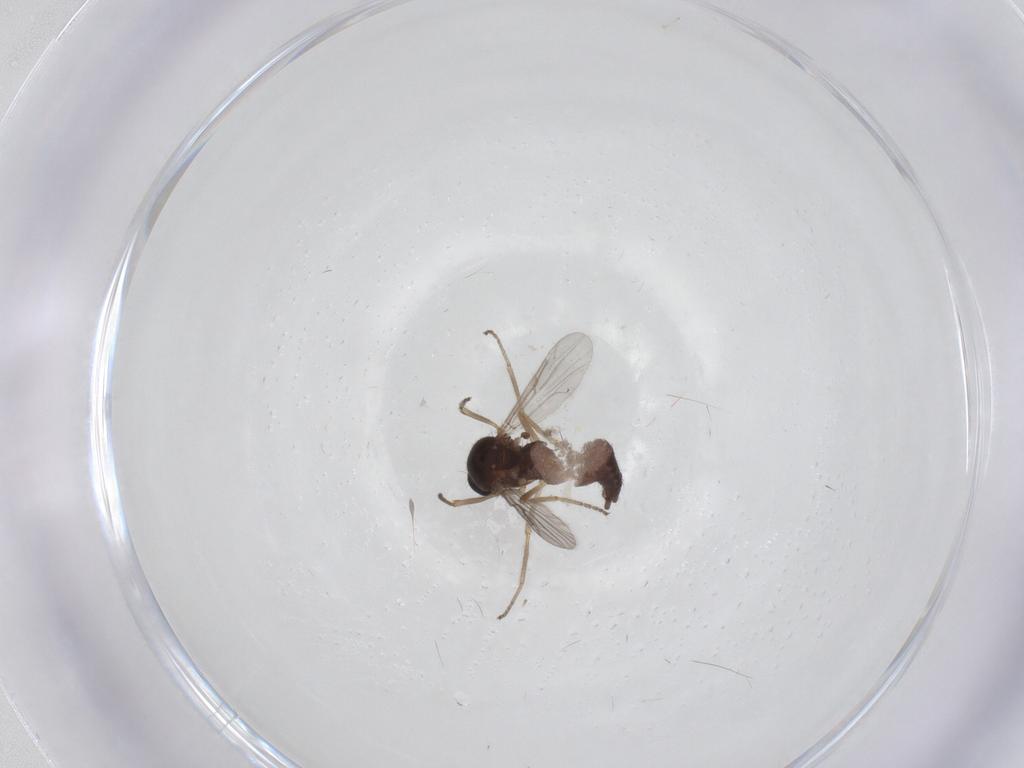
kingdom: Animalia
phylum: Arthropoda
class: Insecta
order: Diptera
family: Ceratopogonidae
